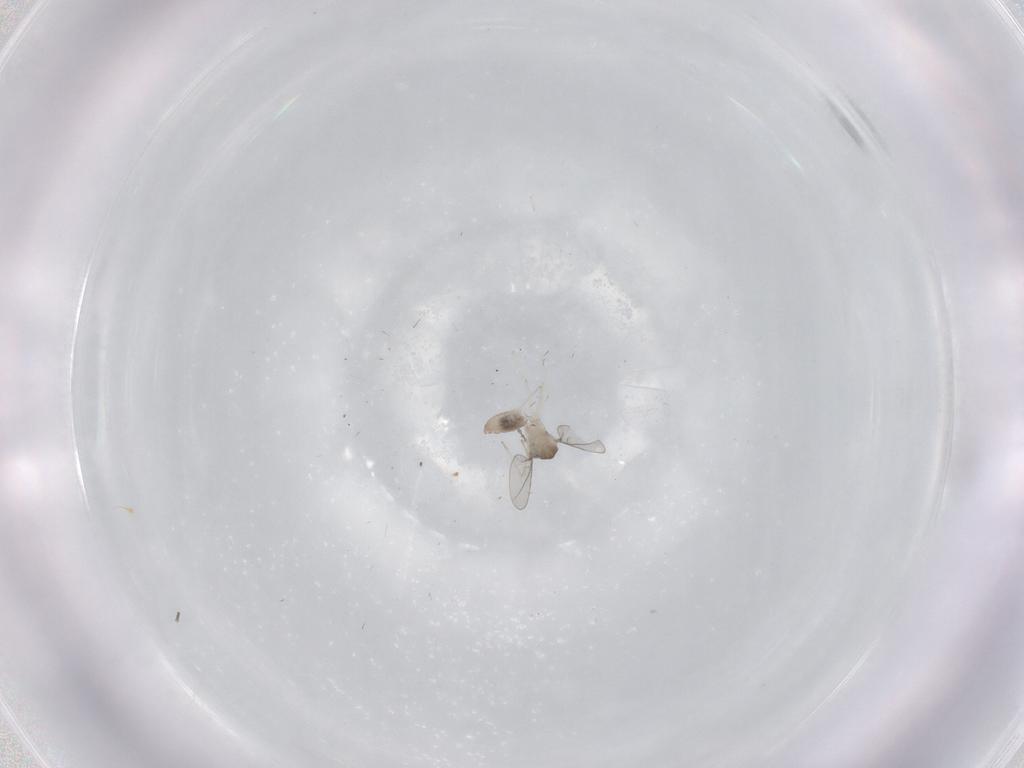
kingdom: Animalia
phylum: Arthropoda
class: Insecta
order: Diptera
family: Cecidomyiidae
